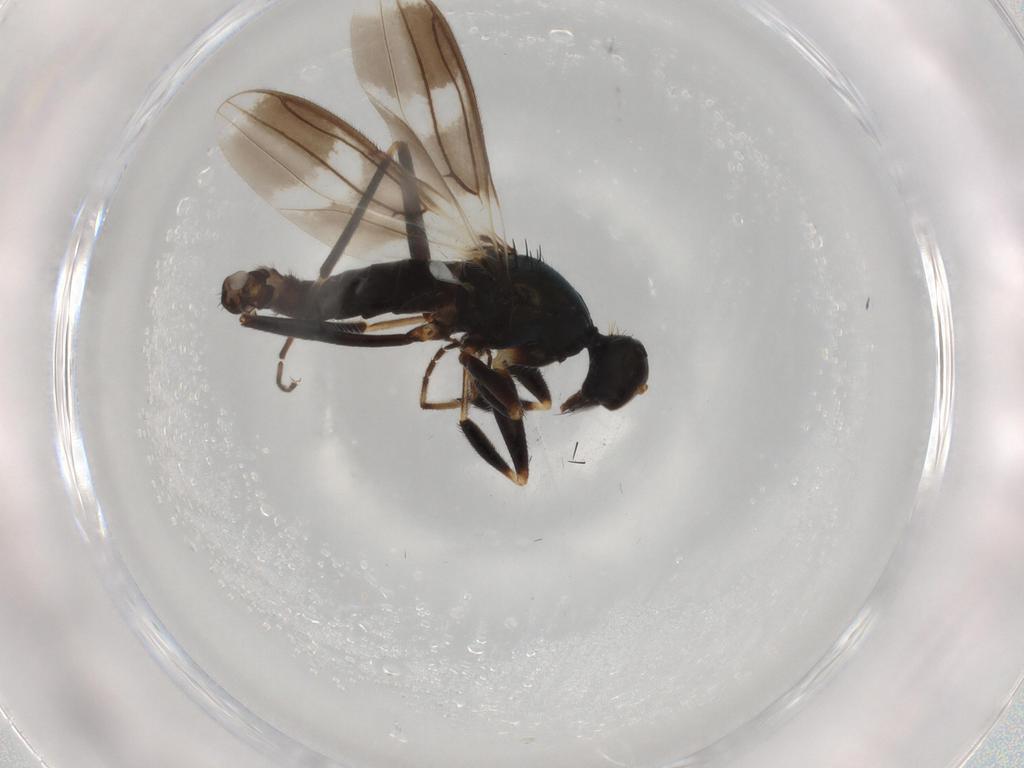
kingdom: Animalia
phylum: Arthropoda
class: Insecta
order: Diptera
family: Hybotidae
